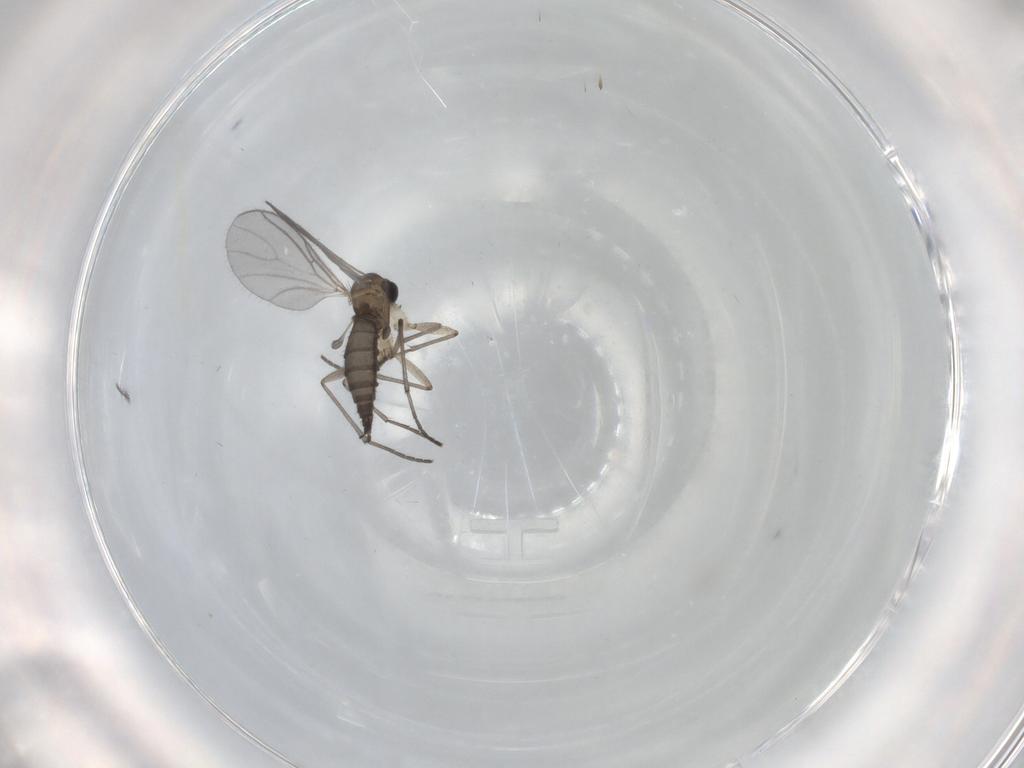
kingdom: Animalia
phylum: Arthropoda
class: Insecta
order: Diptera
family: Sciaridae
